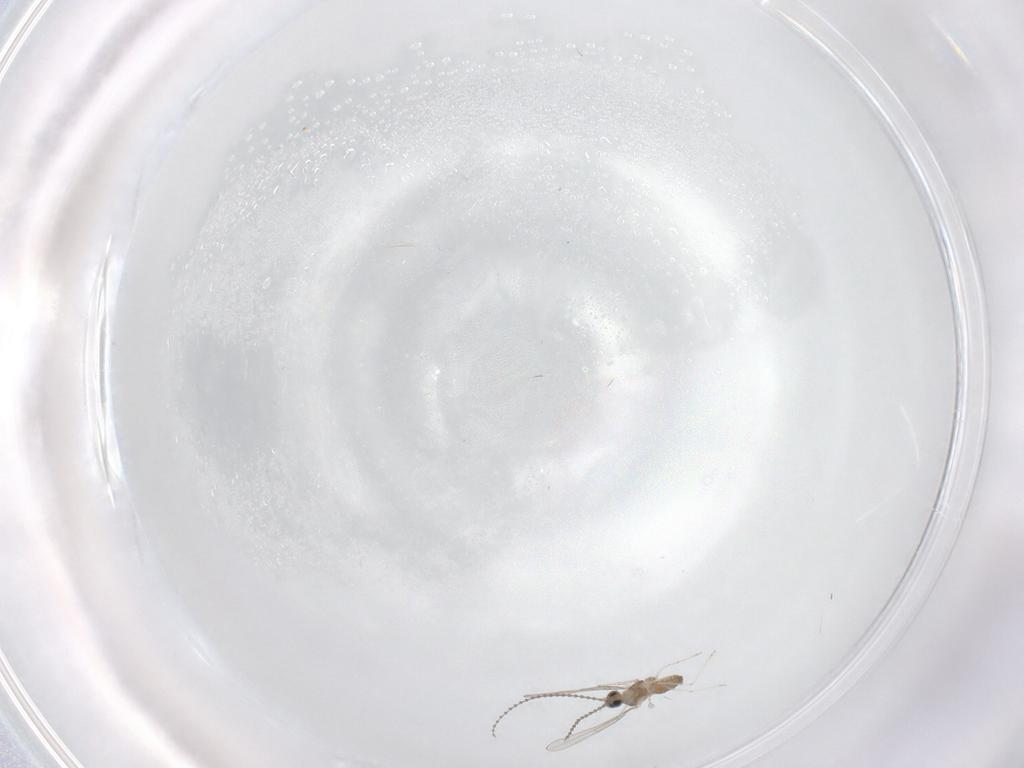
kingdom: Animalia
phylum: Arthropoda
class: Insecta
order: Diptera
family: Cecidomyiidae
